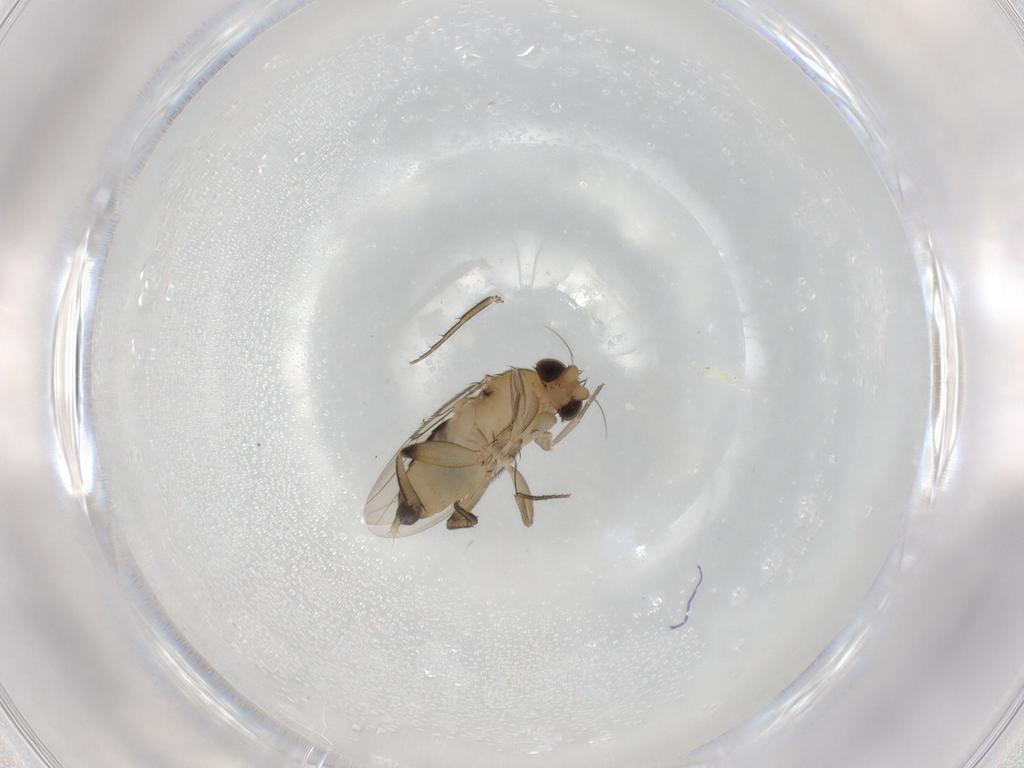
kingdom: Animalia
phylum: Arthropoda
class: Insecta
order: Diptera
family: Phoridae
